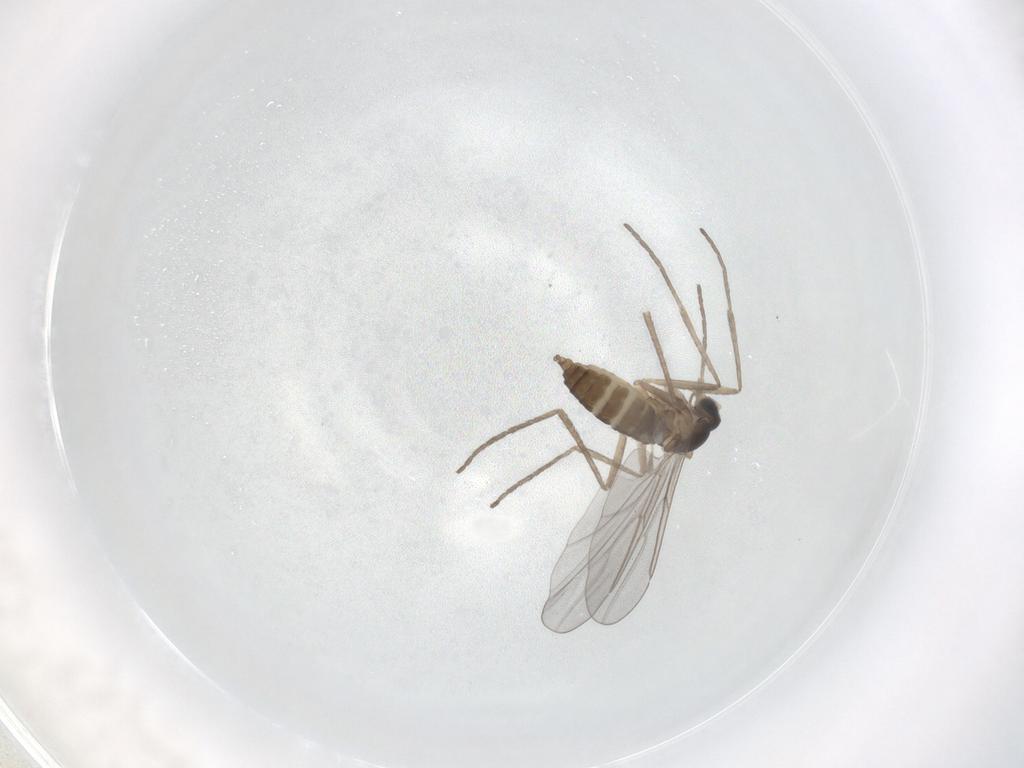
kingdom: Animalia
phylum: Arthropoda
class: Insecta
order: Diptera
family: Cecidomyiidae
